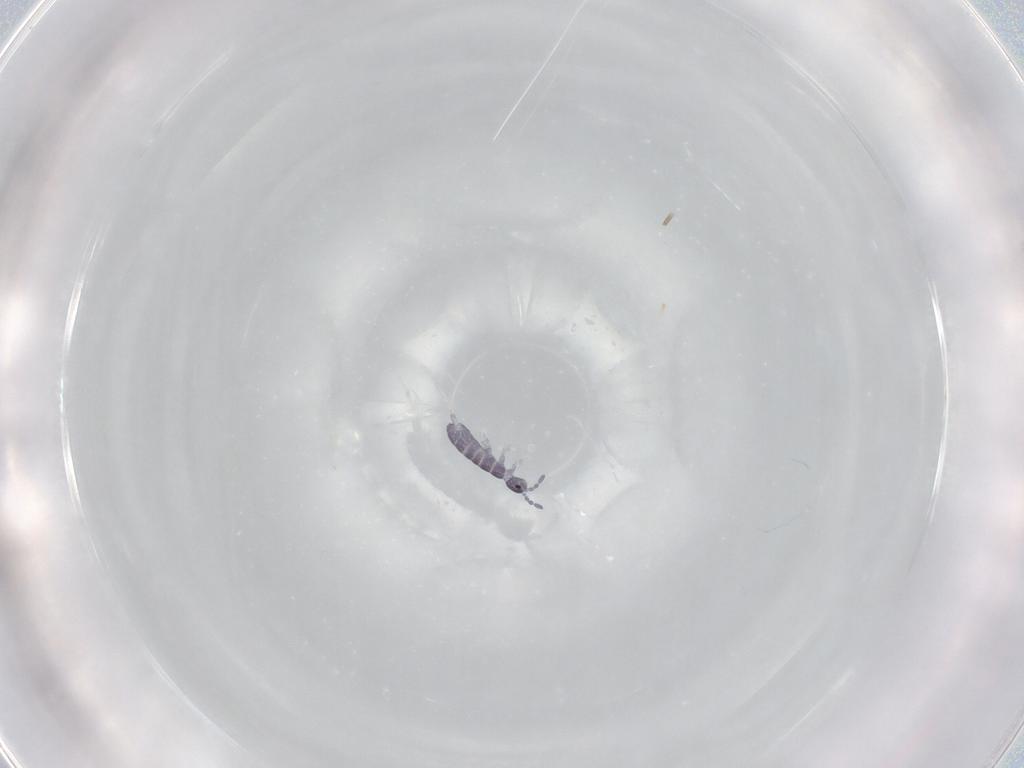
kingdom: Animalia
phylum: Arthropoda
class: Collembola
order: Entomobryomorpha
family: Isotomidae
